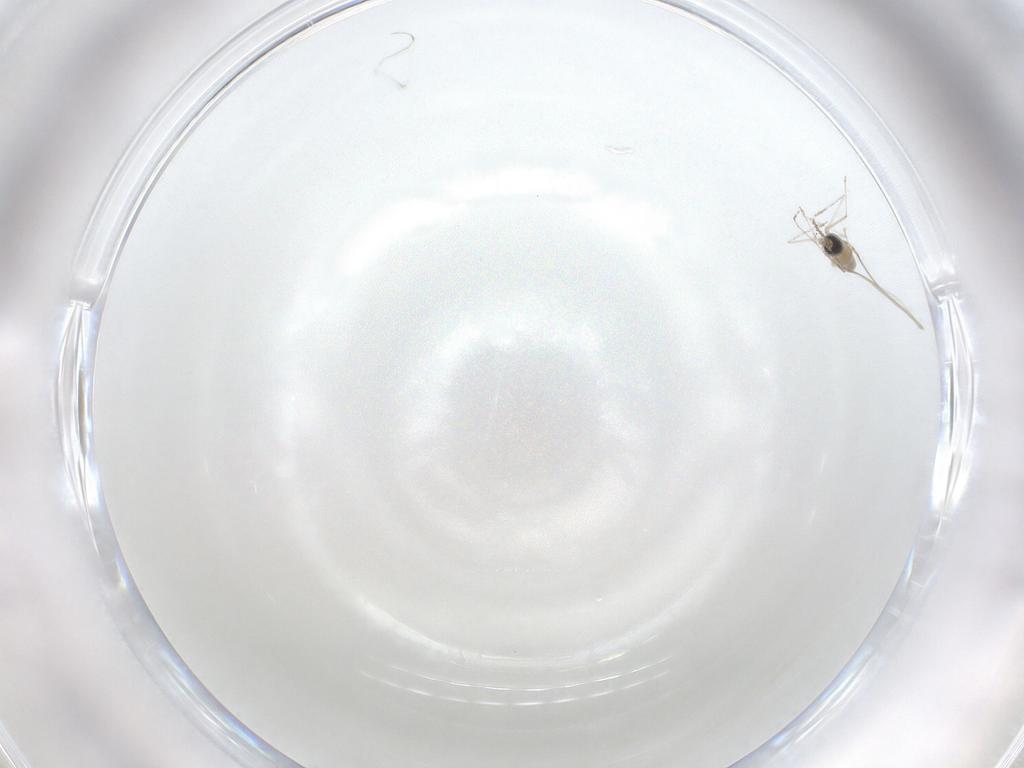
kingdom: Animalia
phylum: Arthropoda
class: Insecta
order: Diptera
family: Cecidomyiidae
